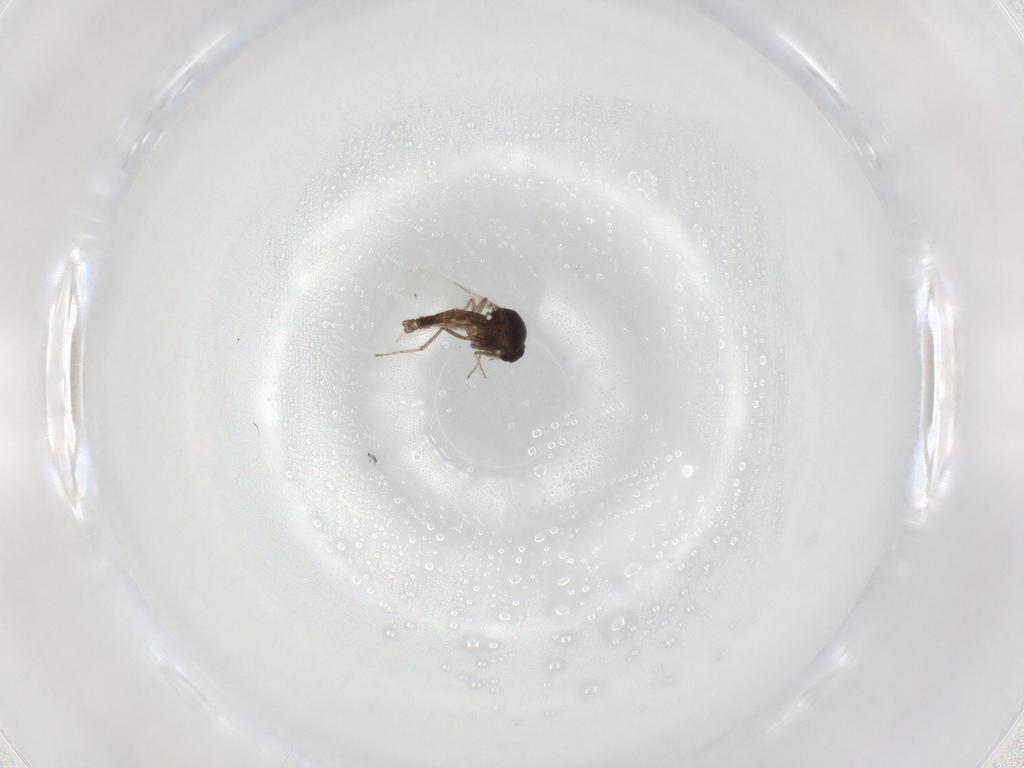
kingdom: Animalia
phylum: Arthropoda
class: Insecta
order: Diptera
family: Ceratopogonidae
